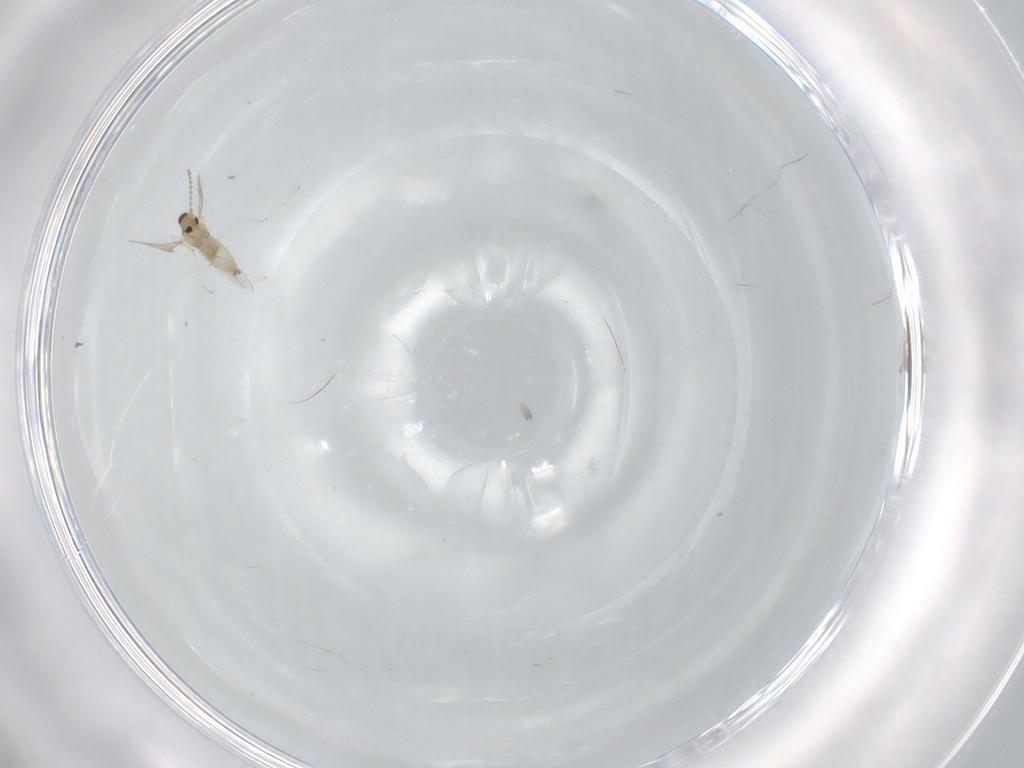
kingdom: Animalia
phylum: Arthropoda
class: Insecta
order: Diptera
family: Cecidomyiidae
